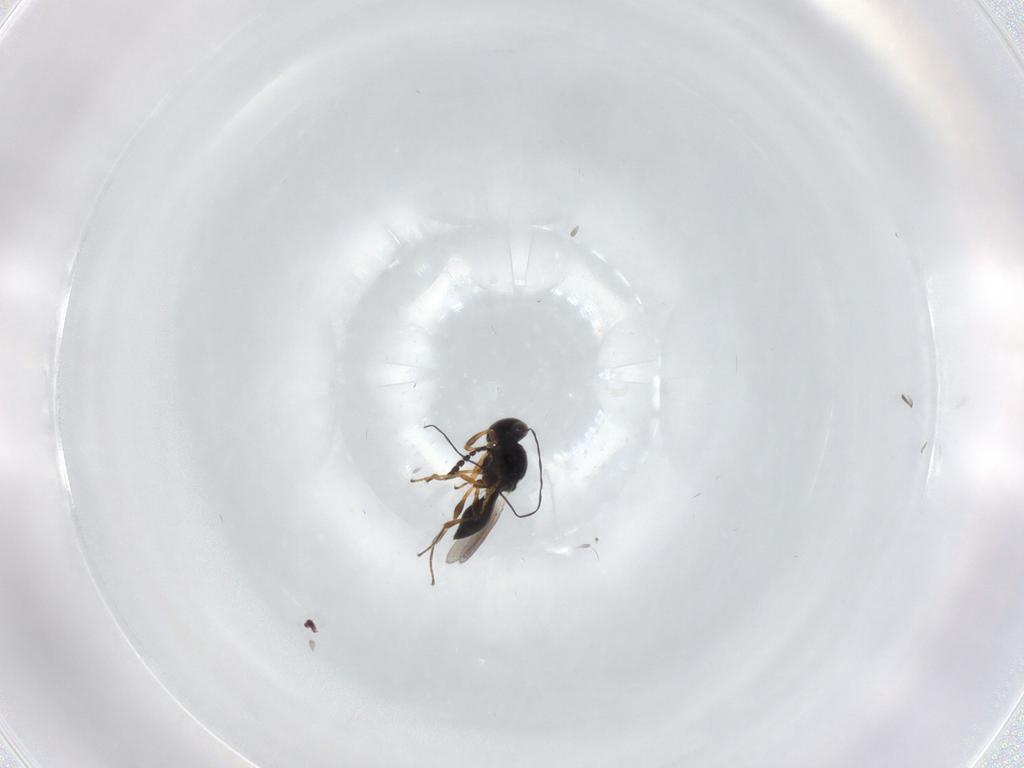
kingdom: Animalia
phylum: Arthropoda
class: Insecta
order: Hymenoptera
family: Platygastridae
